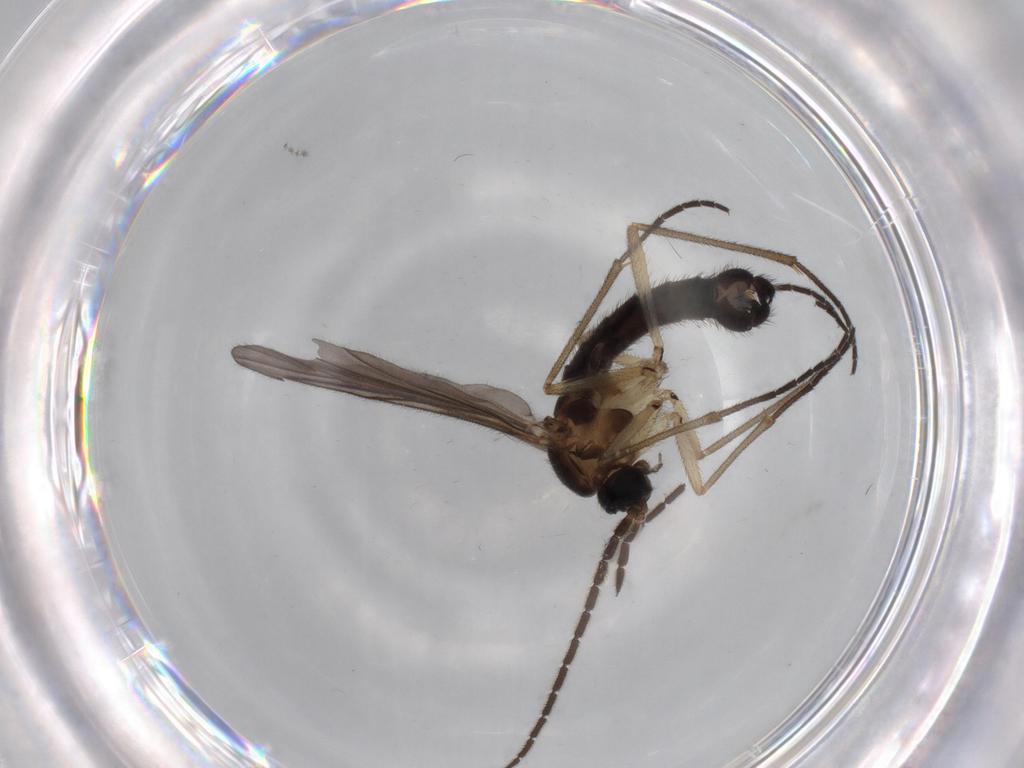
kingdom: Animalia
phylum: Arthropoda
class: Insecta
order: Diptera
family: Sciaridae
